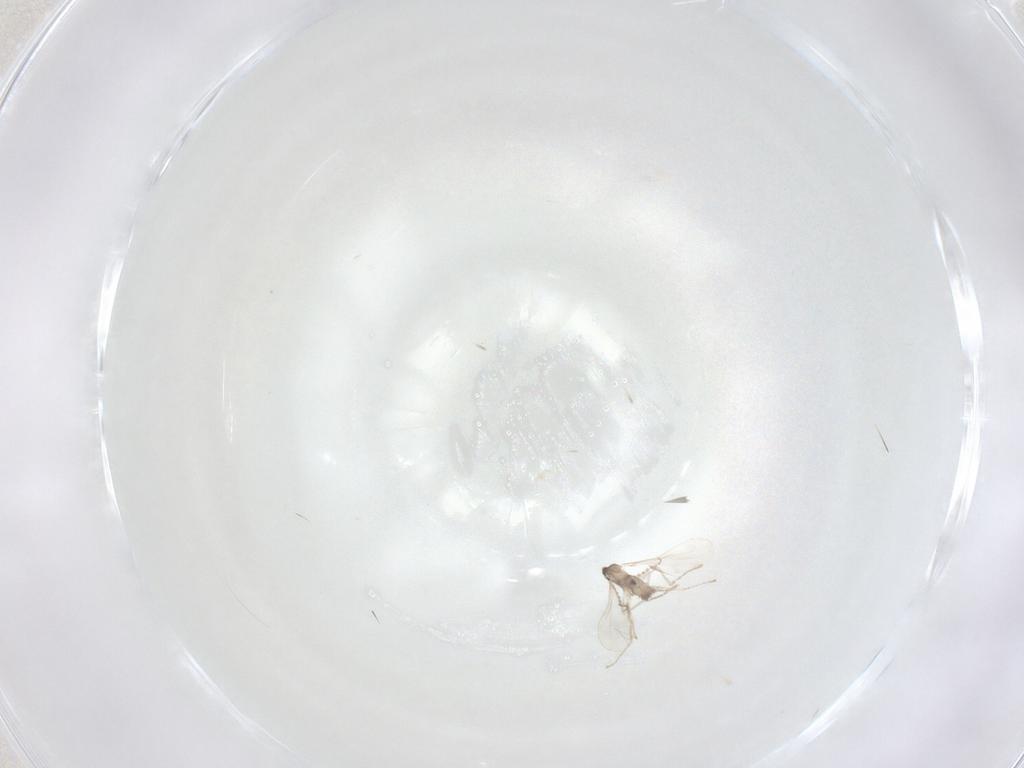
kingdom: Animalia
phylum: Arthropoda
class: Insecta
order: Diptera
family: Cecidomyiidae
